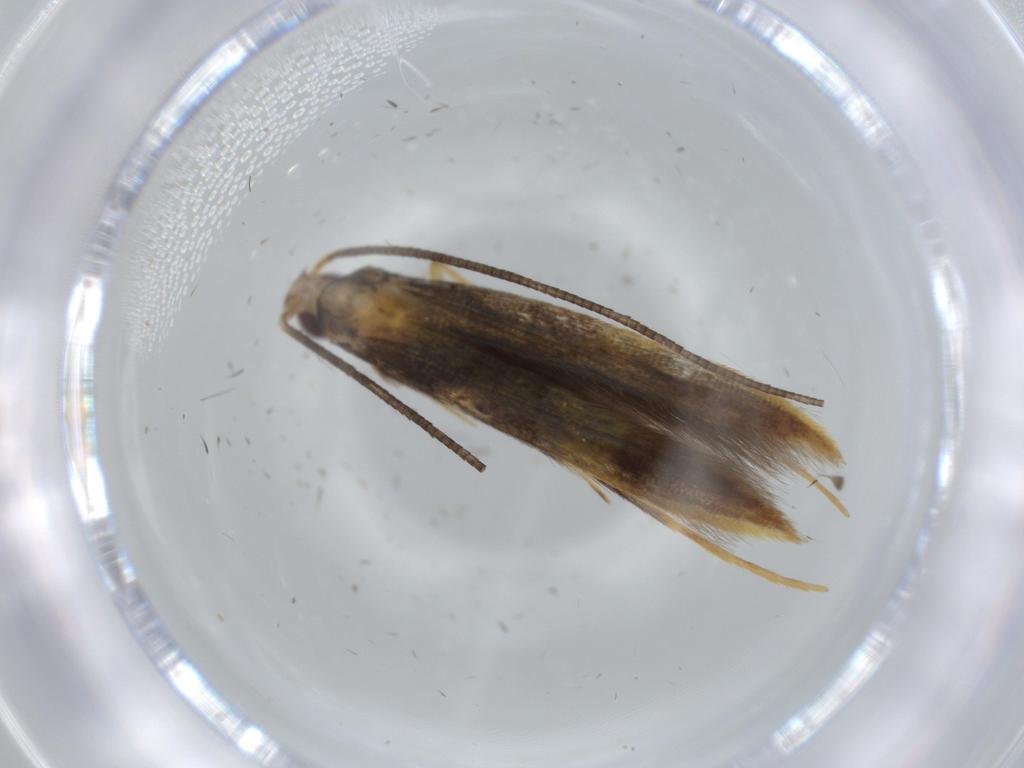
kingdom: Animalia
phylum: Arthropoda
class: Insecta
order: Lepidoptera
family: Gracillariidae
